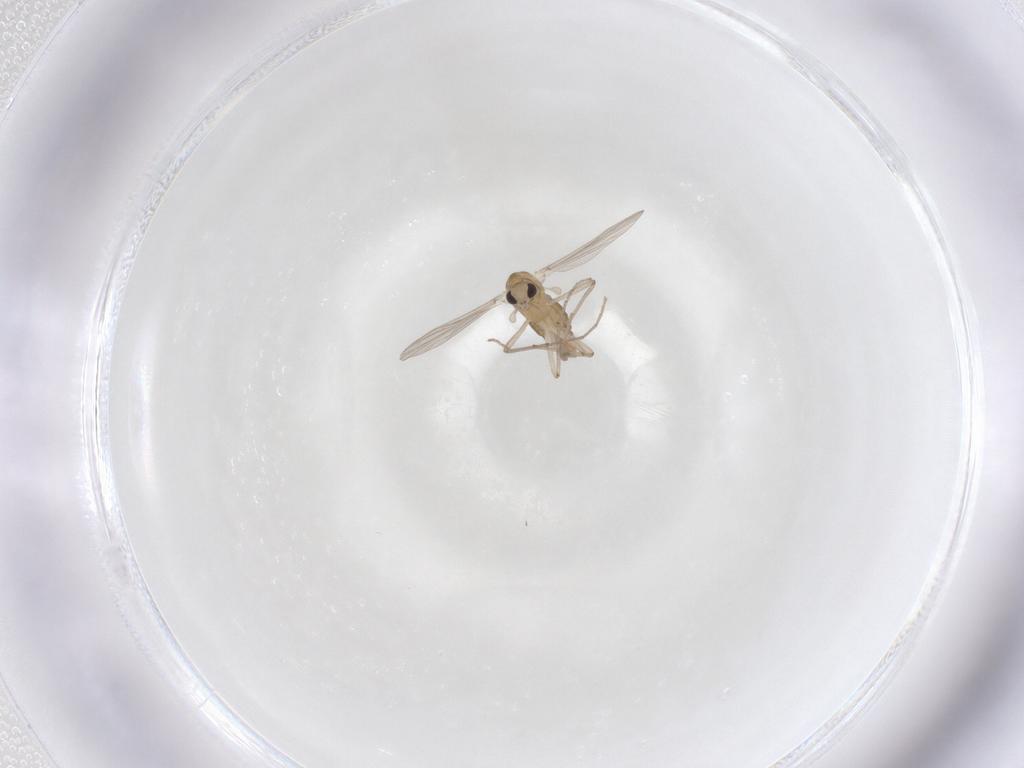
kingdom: Animalia
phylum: Arthropoda
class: Insecta
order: Diptera
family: Chironomidae
